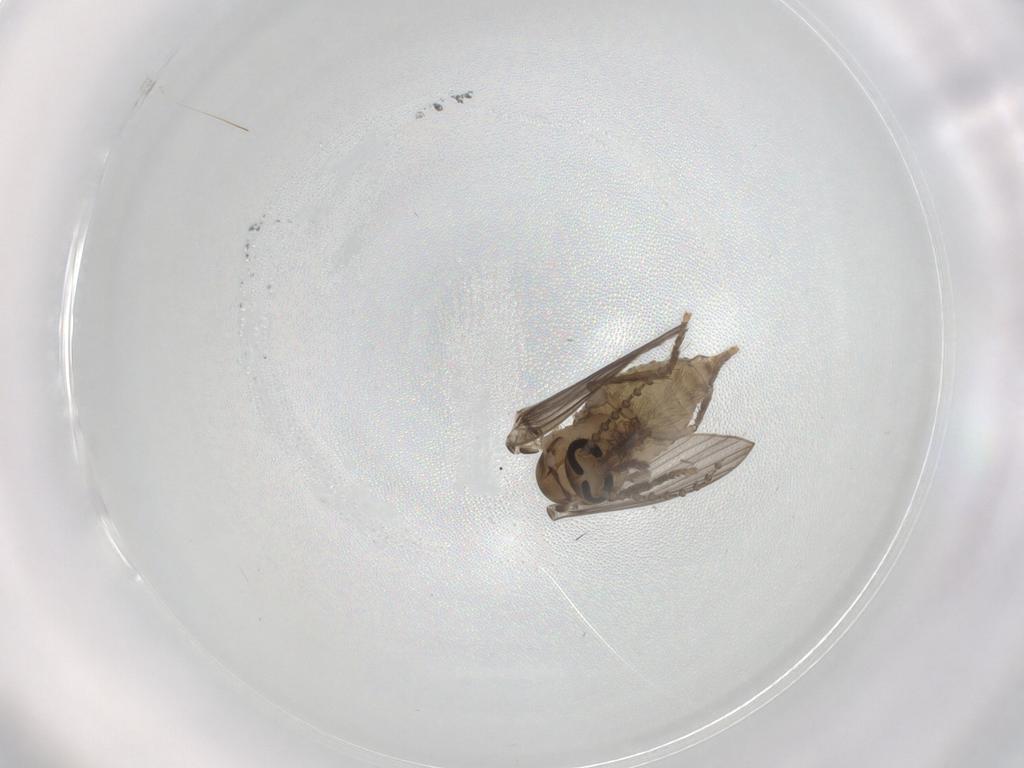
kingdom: Animalia
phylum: Arthropoda
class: Insecta
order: Diptera
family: Psychodidae
